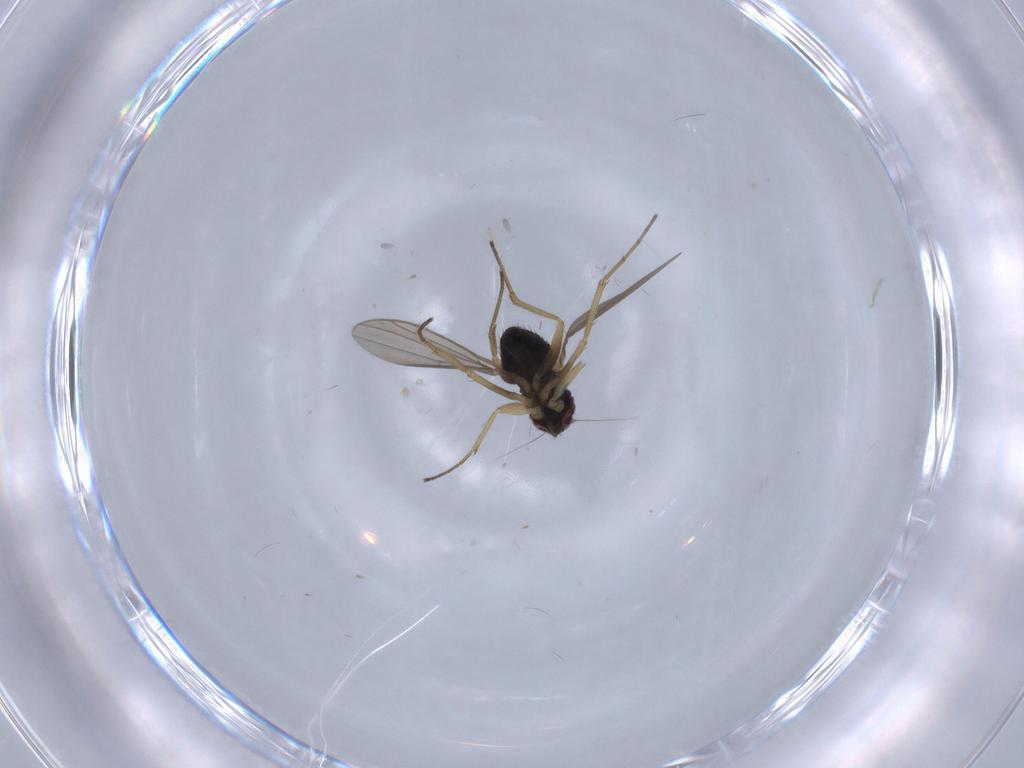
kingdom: Animalia
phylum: Arthropoda
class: Insecta
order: Diptera
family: Dolichopodidae
